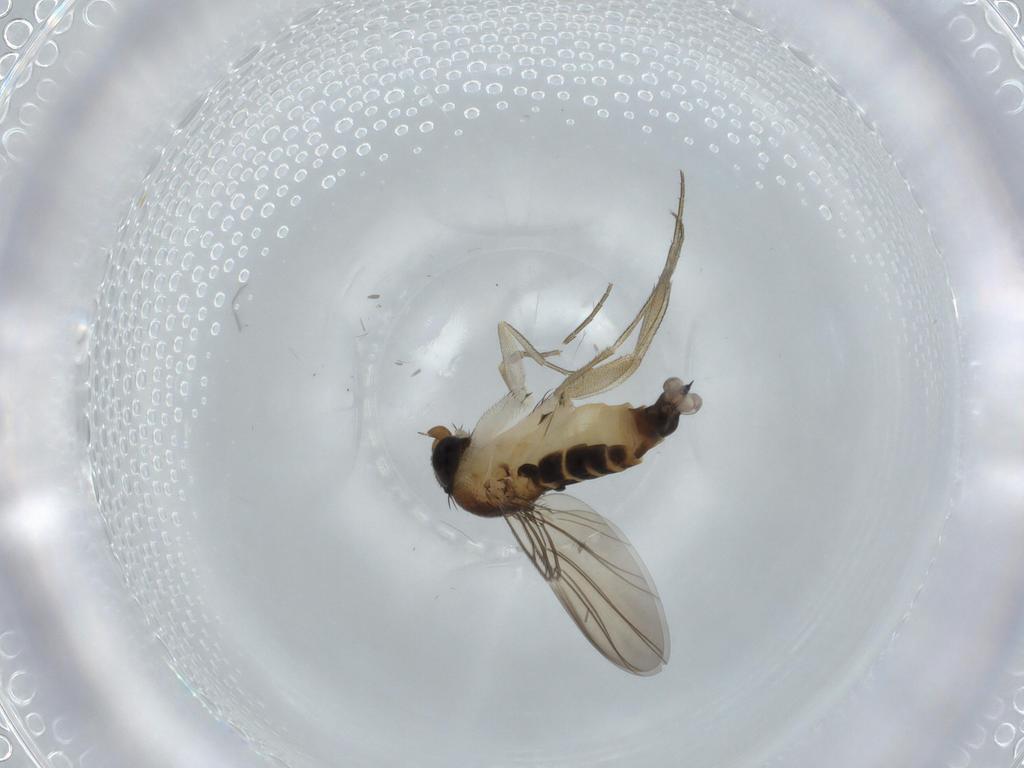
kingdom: Animalia
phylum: Arthropoda
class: Insecta
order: Diptera
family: Phoridae
